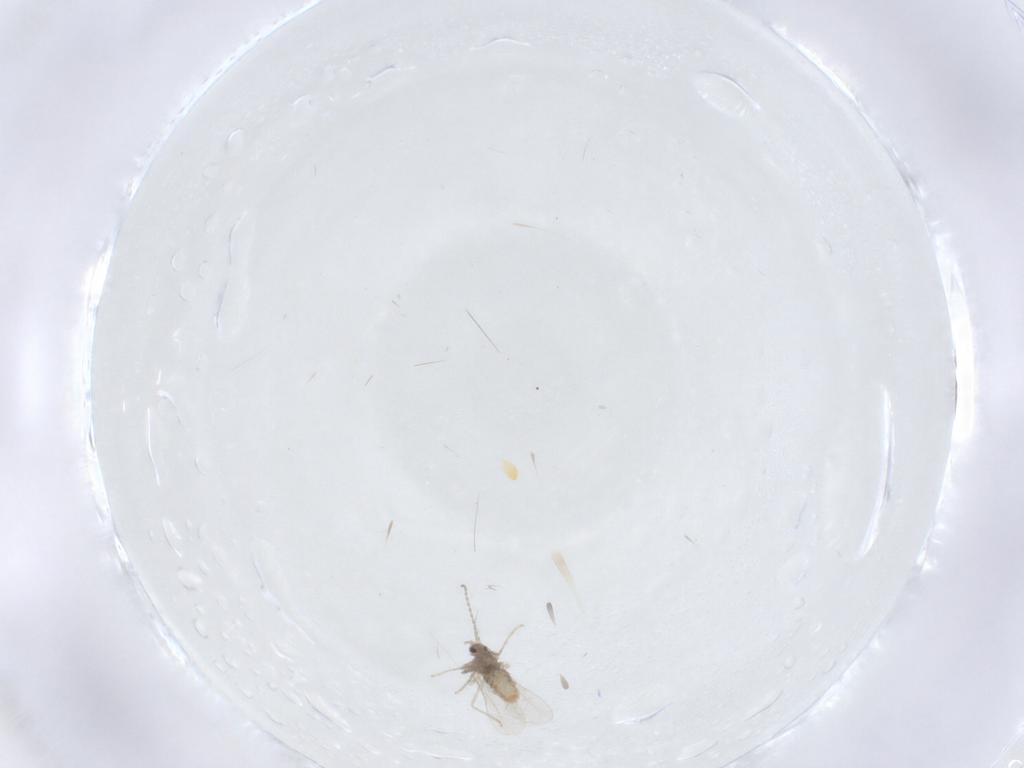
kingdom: Animalia
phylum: Arthropoda
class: Insecta
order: Diptera
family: Cecidomyiidae
